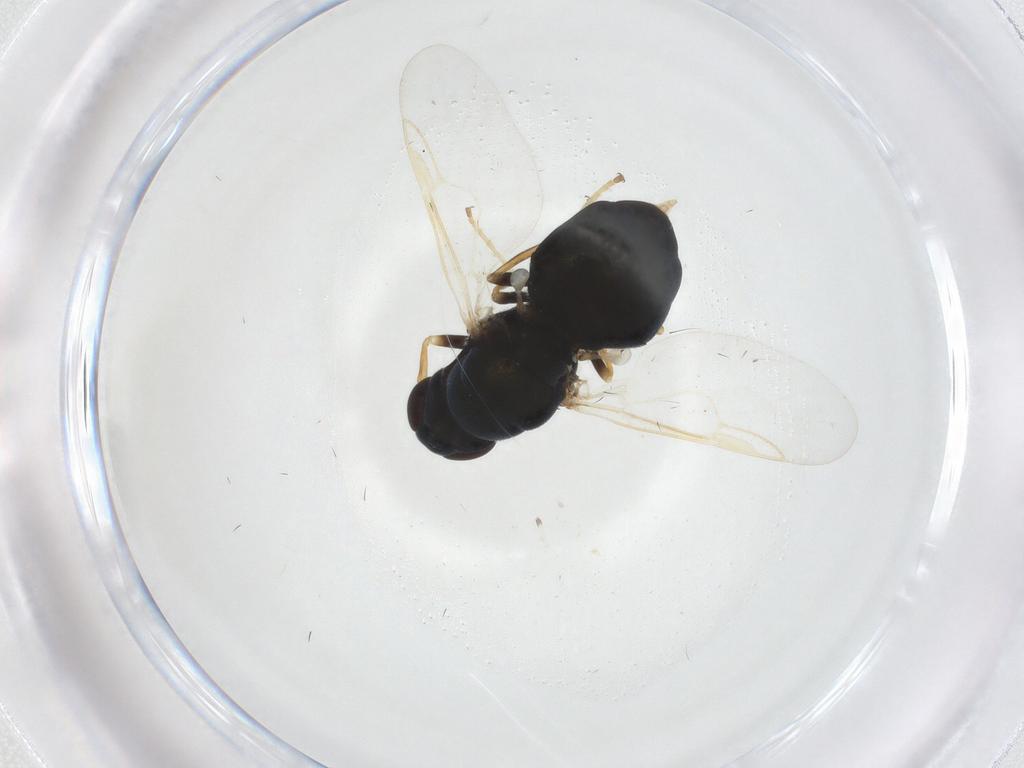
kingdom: Animalia
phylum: Arthropoda
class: Insecta
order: Diptera
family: Stratiomyidae
